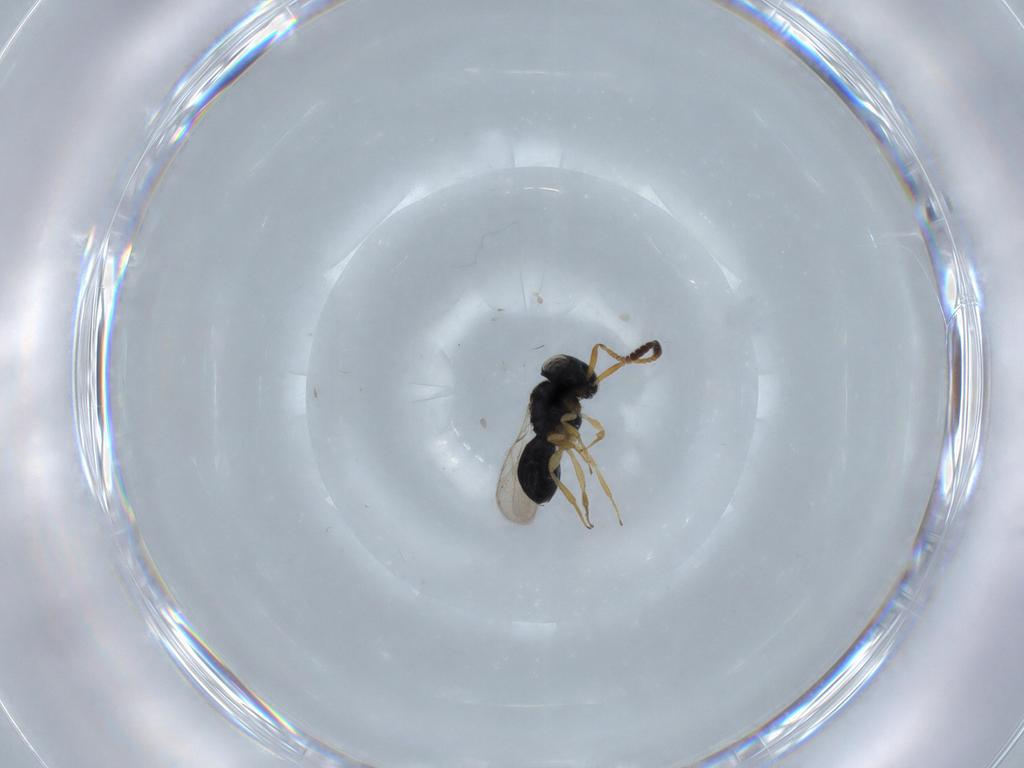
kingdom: Animalia
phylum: Arthropoda
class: Insecta
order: Hymenoptera
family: Scelionidae
